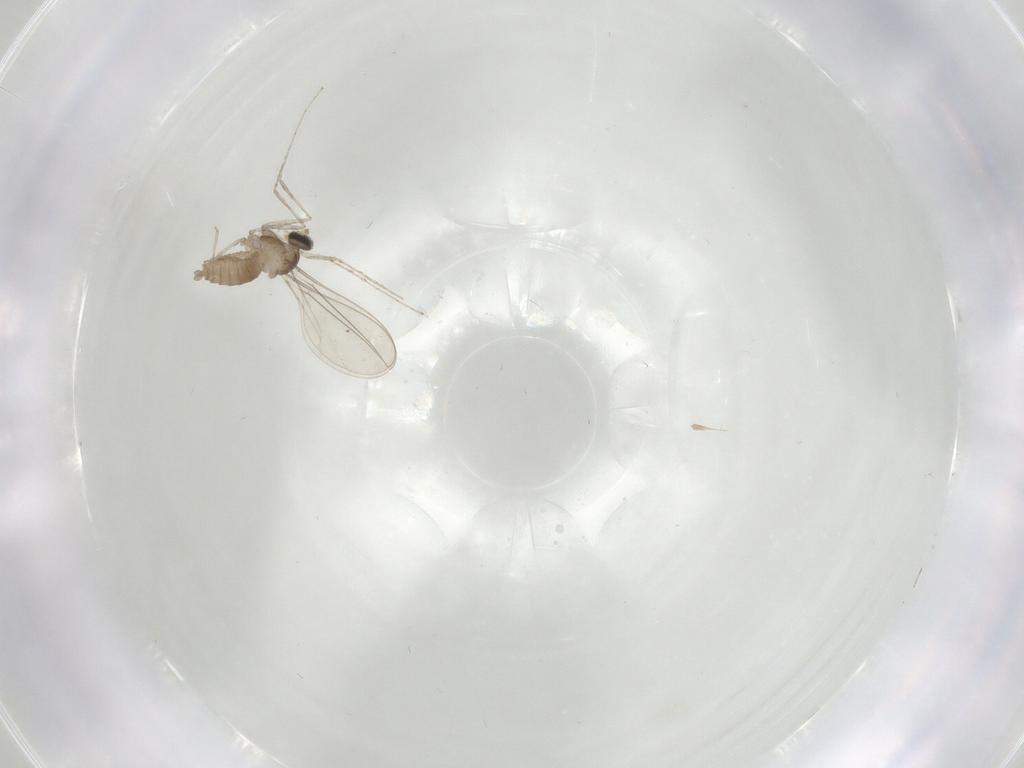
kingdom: Animalia
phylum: Arthropoda
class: Insecta
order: Diptera
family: Cecidomyiidae
